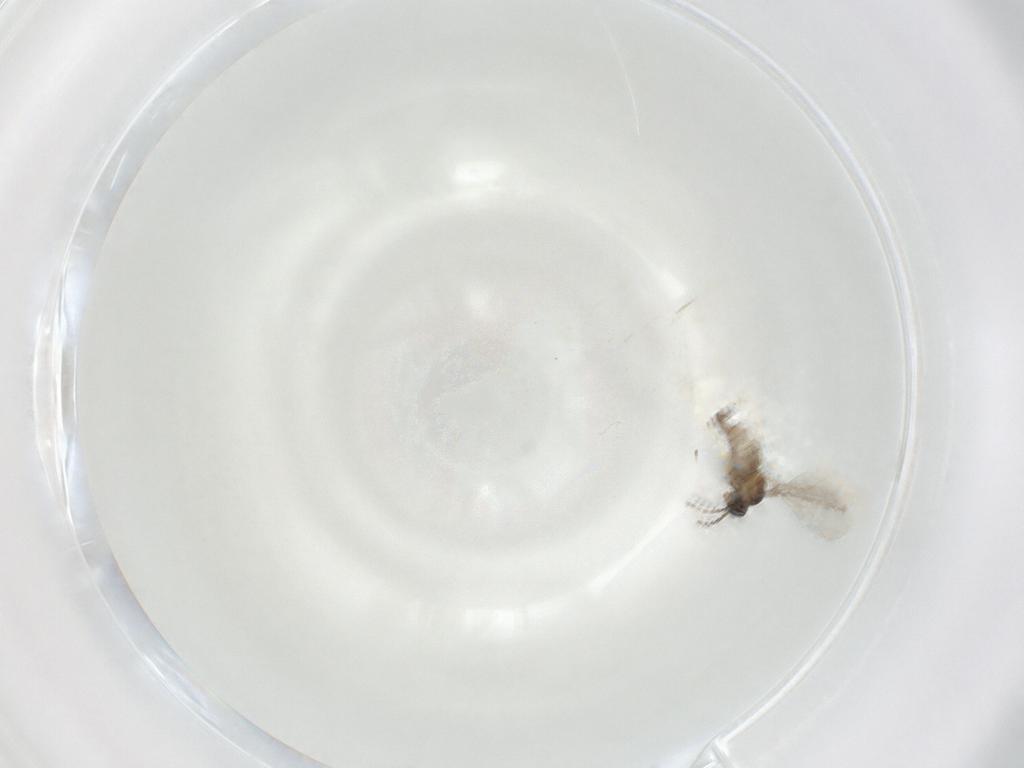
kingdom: Animalia
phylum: Arthropoda
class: Insecta
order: Diptera
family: Cecidomyiidae
